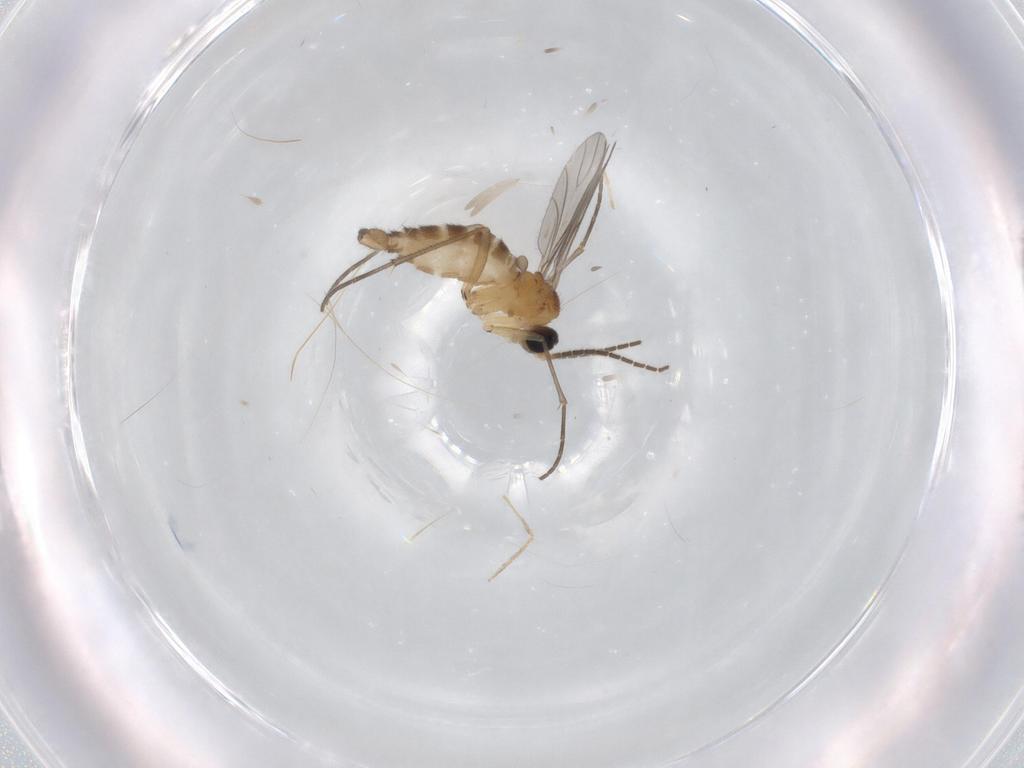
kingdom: Animalia
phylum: Arthropoda
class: Insecta
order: Diptera
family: Sciaridae
